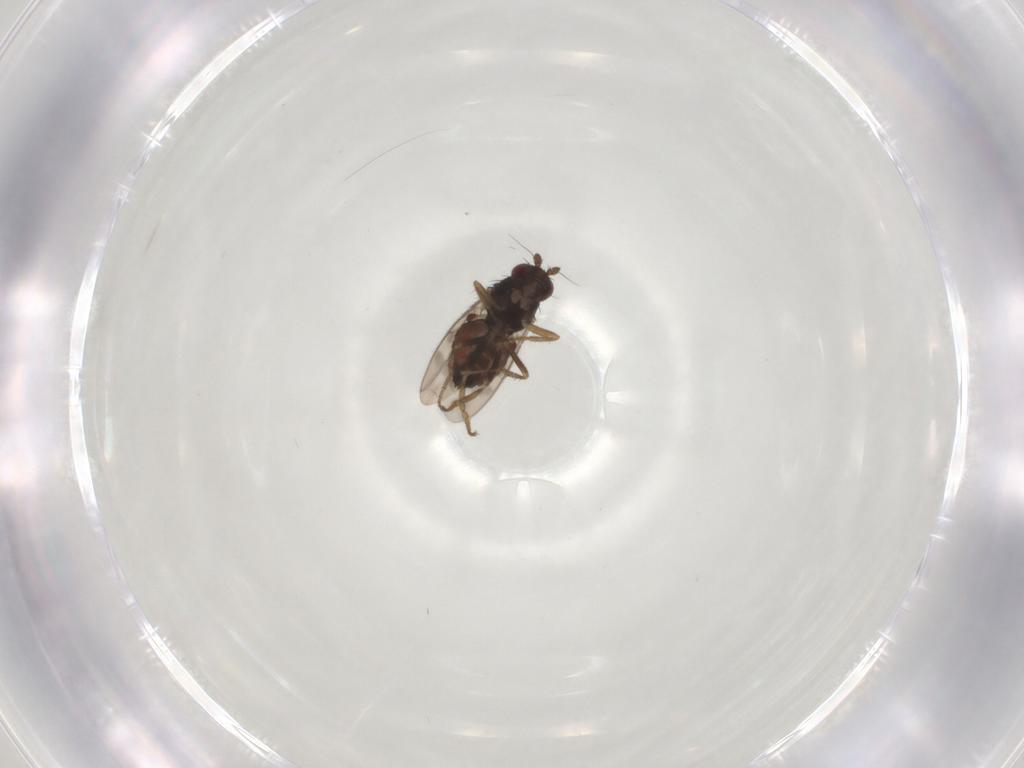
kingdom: Animalia
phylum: Arthropoda
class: Insecta
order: Diptera
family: Sphaeroceridae
